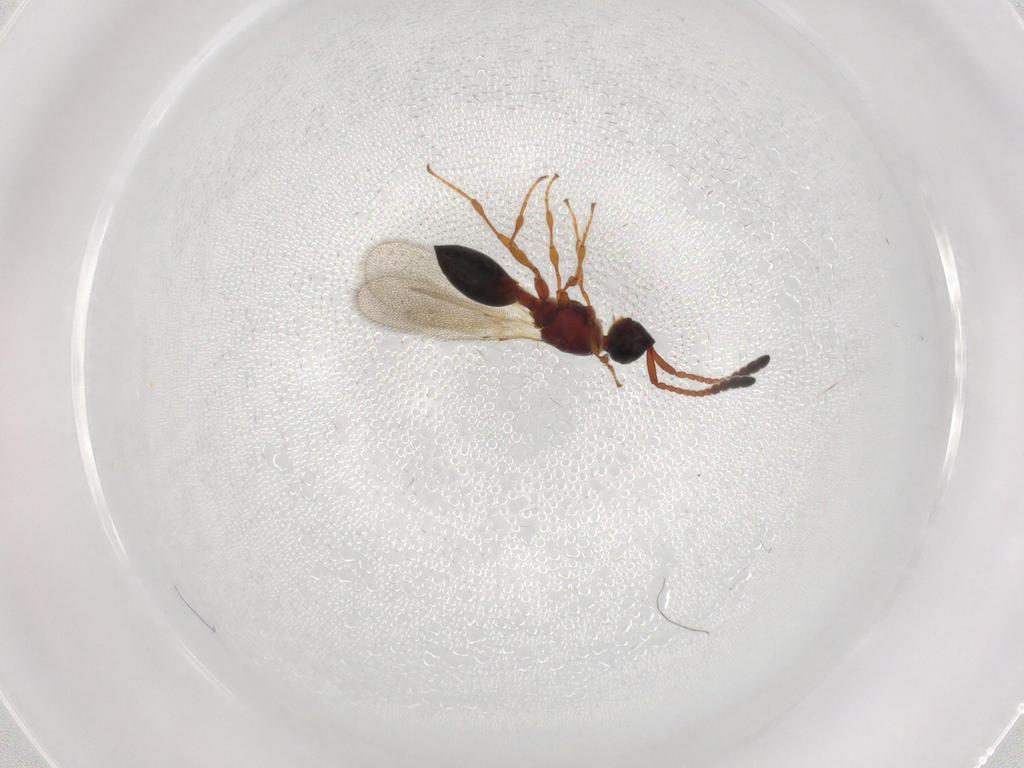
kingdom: Animalia
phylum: Arthropoda
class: Insecta
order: Hymenoptera
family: Diapriidae
